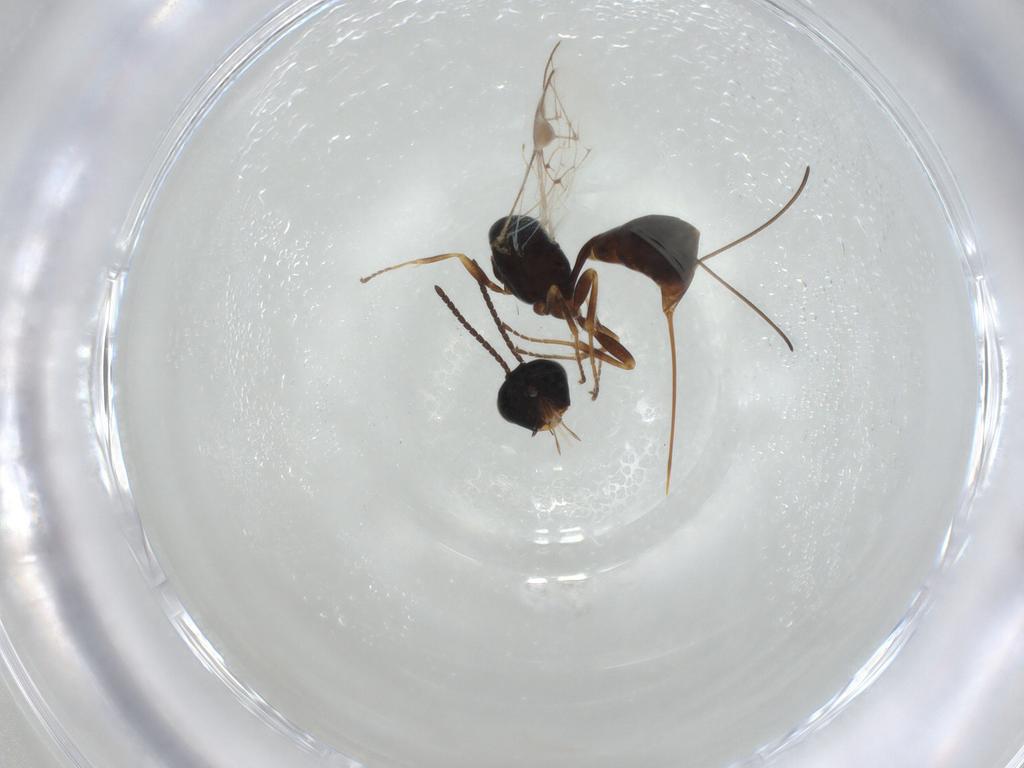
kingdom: Animalia
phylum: Arthropoda
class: Insecta
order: Hymenoptera
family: Ichneumonidae
